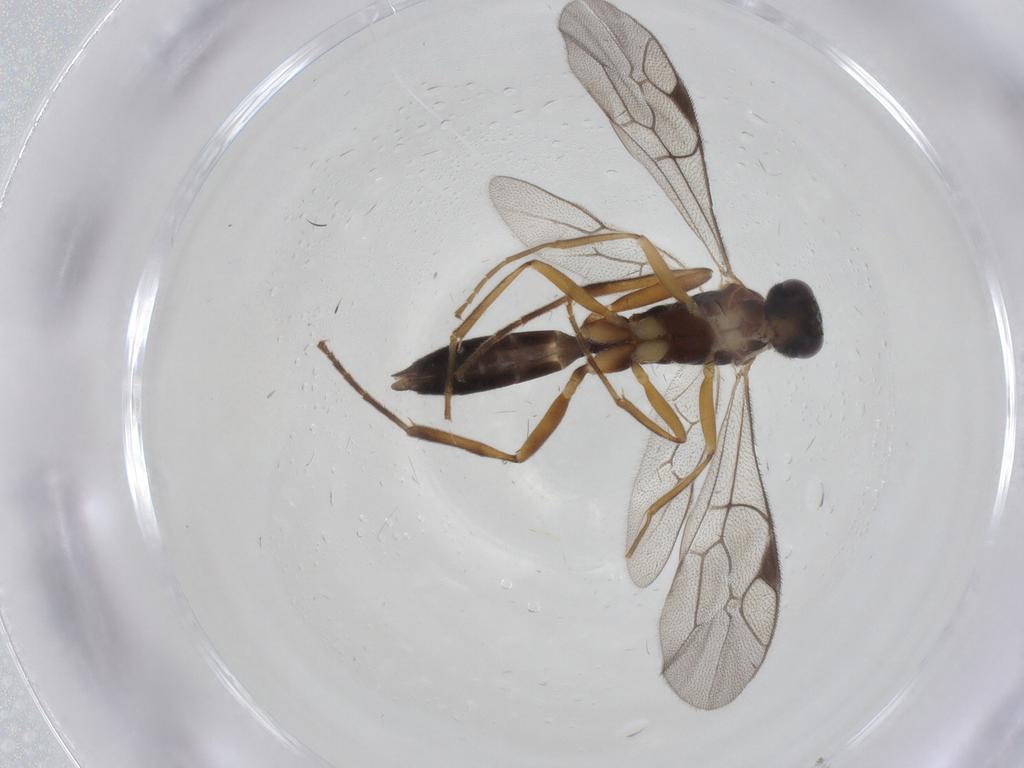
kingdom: Animalia
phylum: Arthropoda
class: Insecta
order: Hymenoptera
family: Ichneumonidae
